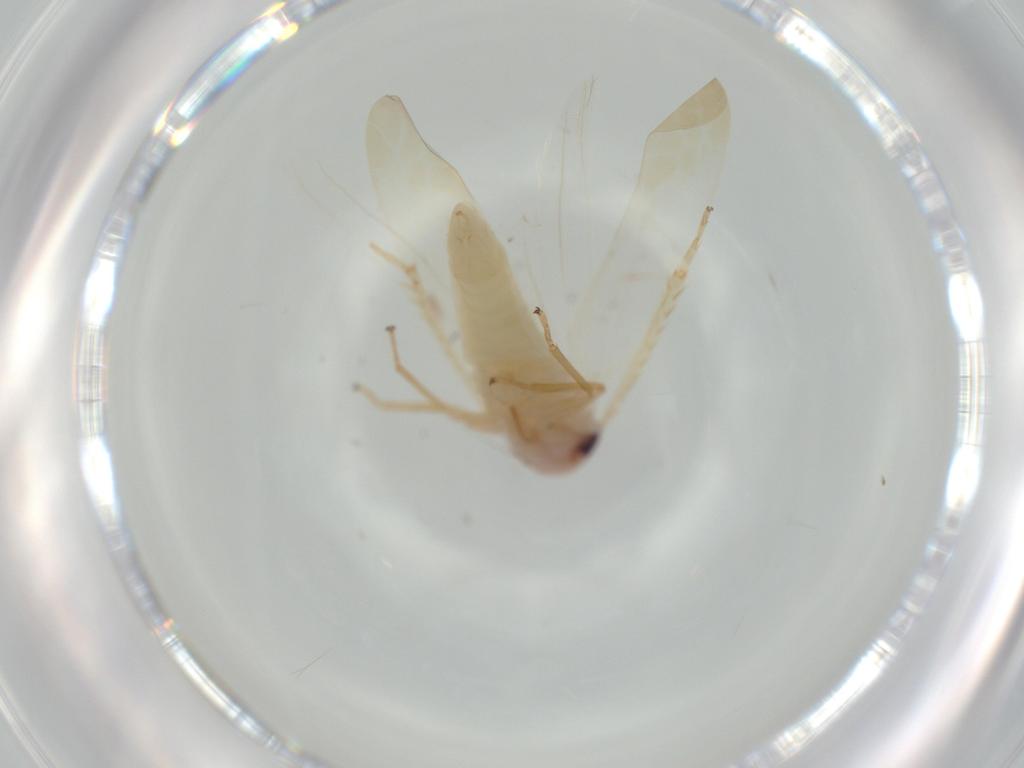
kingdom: Animalia
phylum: Arthropoda
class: Insecta
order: Hemiptera
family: Cicadellidae
